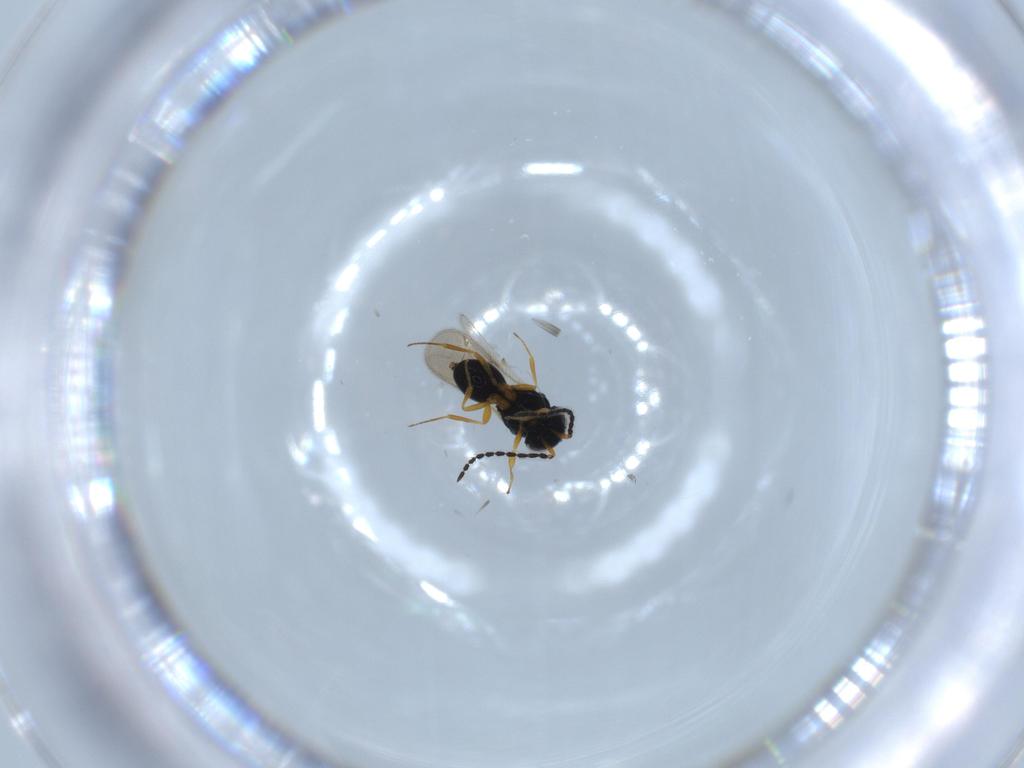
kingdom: Animalia
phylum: Arthropoda
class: Insecta
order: Hymenoptera
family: Scelionidae
